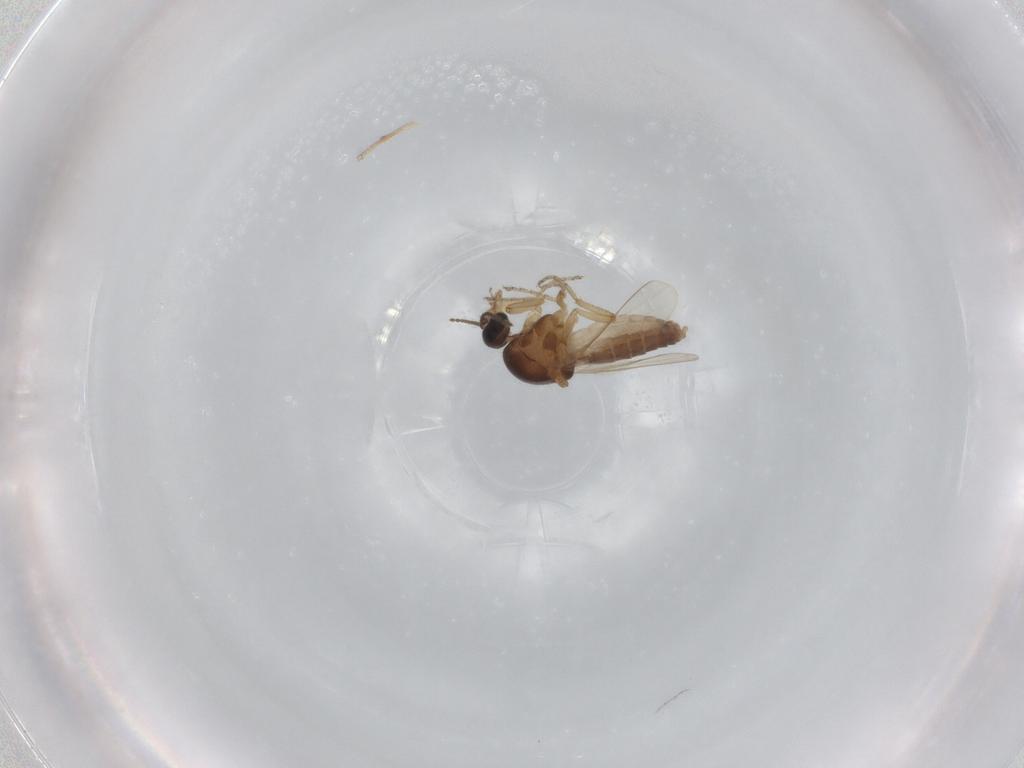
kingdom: Animalia
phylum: Arthropoda
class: Insecta
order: Diptera
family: Ceratopogonidae
